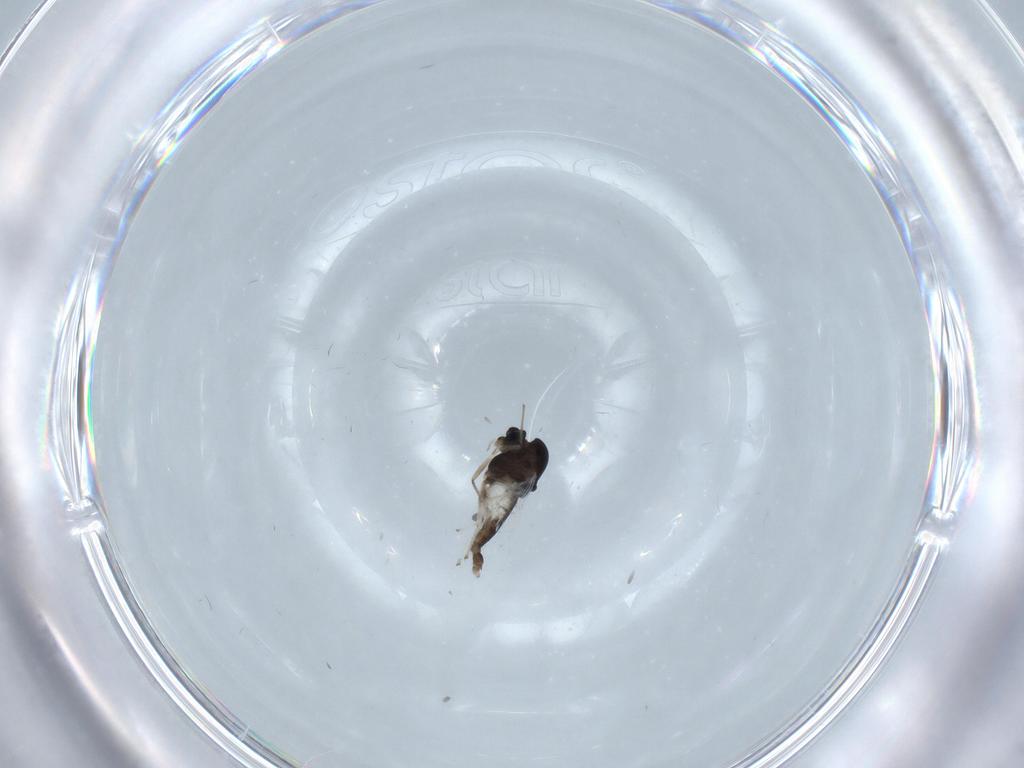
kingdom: Animalia
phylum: Arthropoda
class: Insecta
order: Diptera
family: Chironomidae
